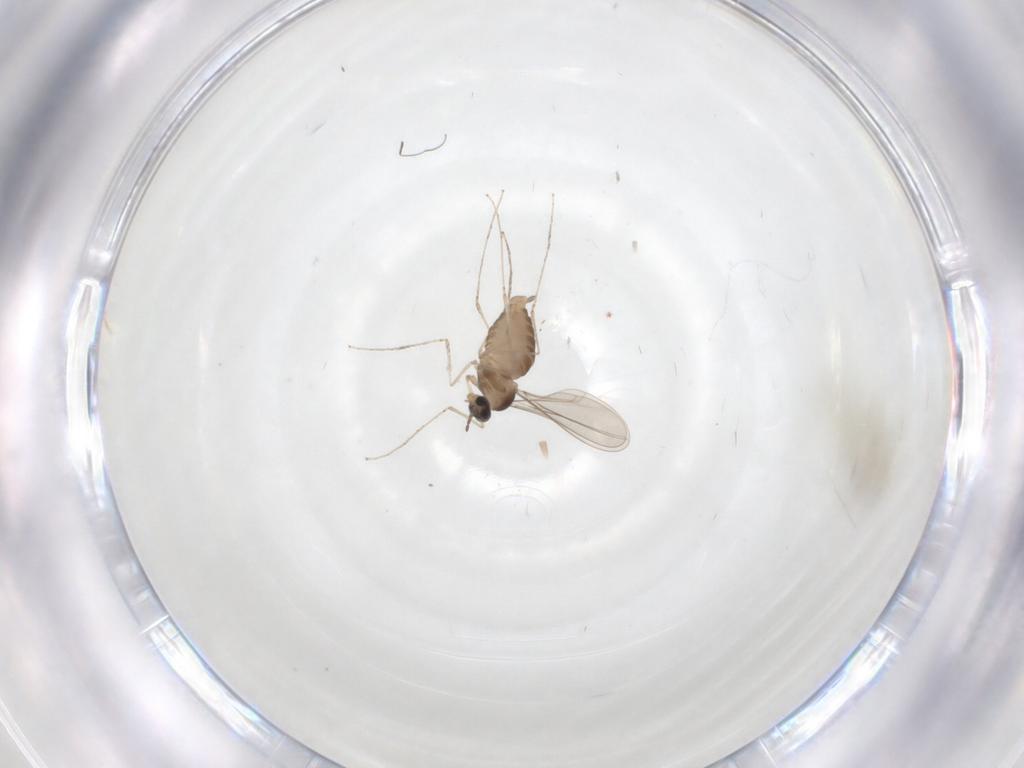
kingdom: Animalia
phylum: Arthropoda
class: Insecta
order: Diptera
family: Cecidomyiidae
